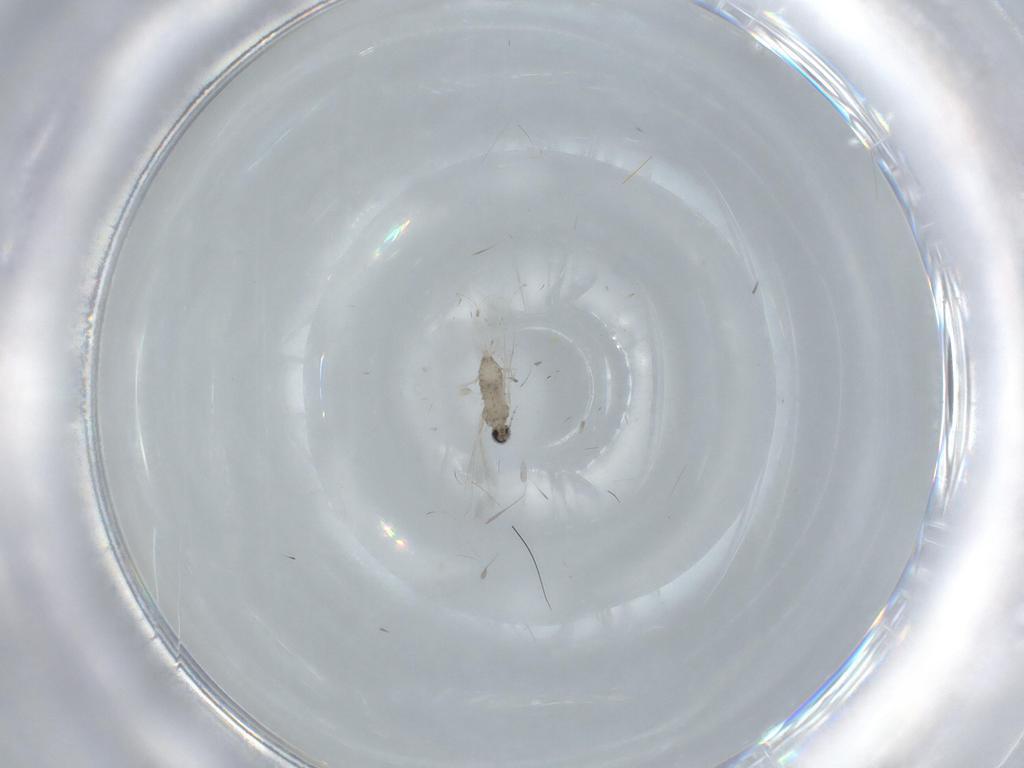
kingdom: Animalia
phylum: Arthropoda
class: Insecta
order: Diptera
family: Cecidomyiidae
